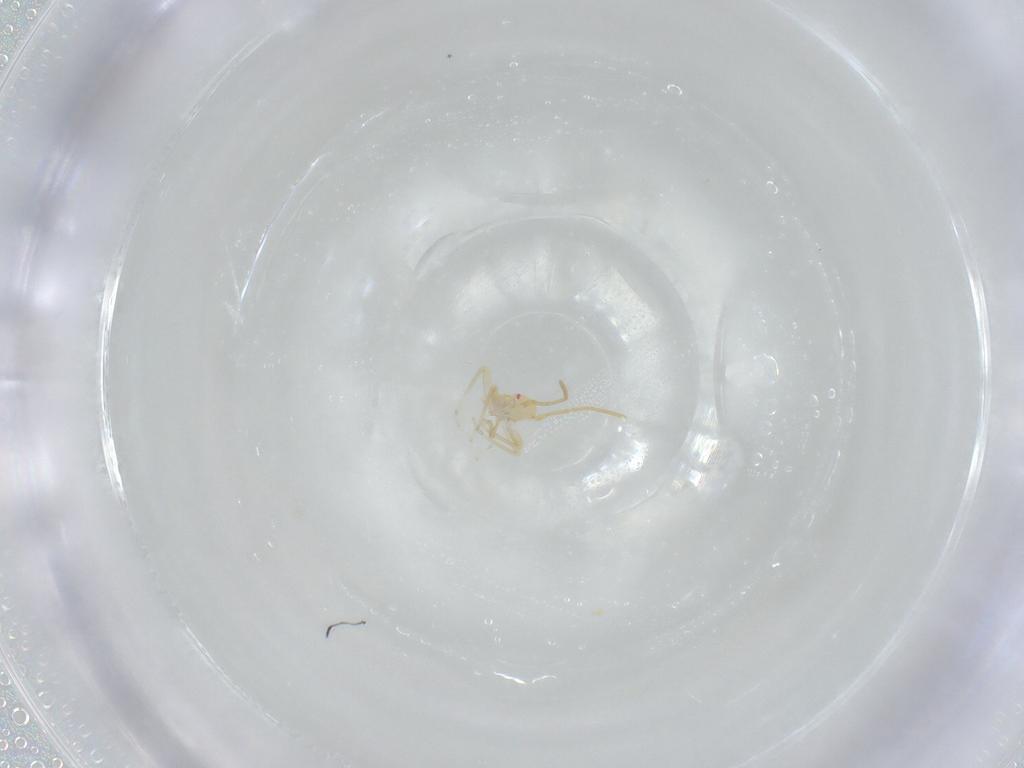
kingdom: Animalia
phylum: Arthropoda
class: Insecta
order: Hemiptera
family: Miridae
